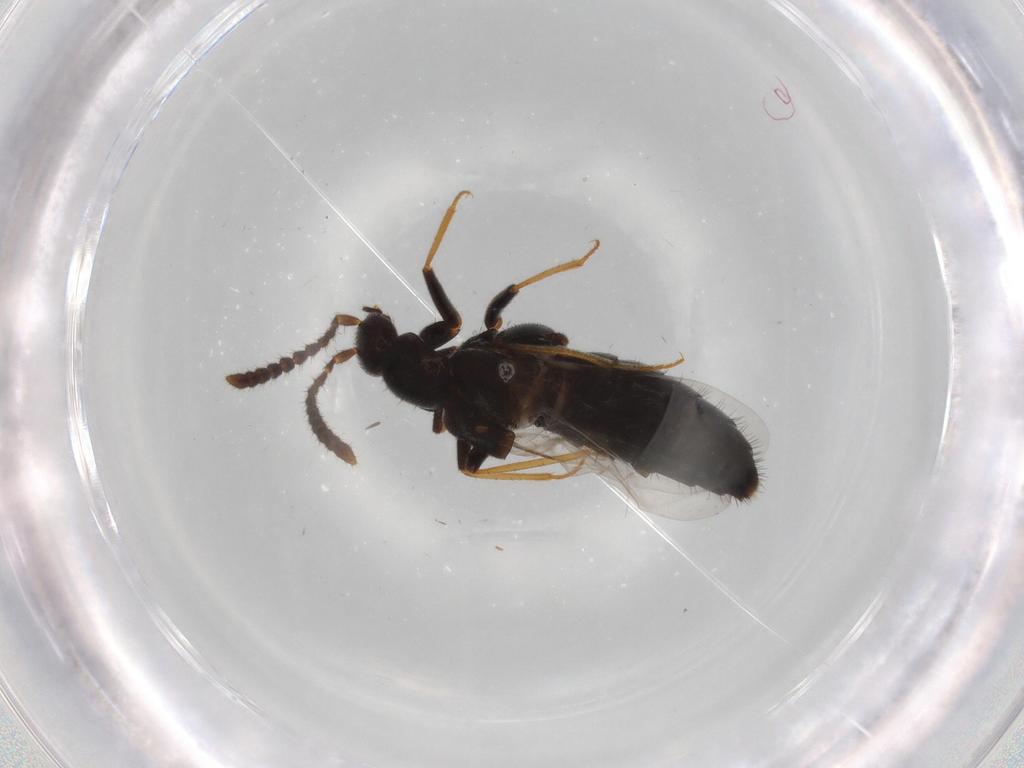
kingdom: Animalia
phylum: Arthropoda
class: Insecta
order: Coleoptera
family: Staphylinidae
